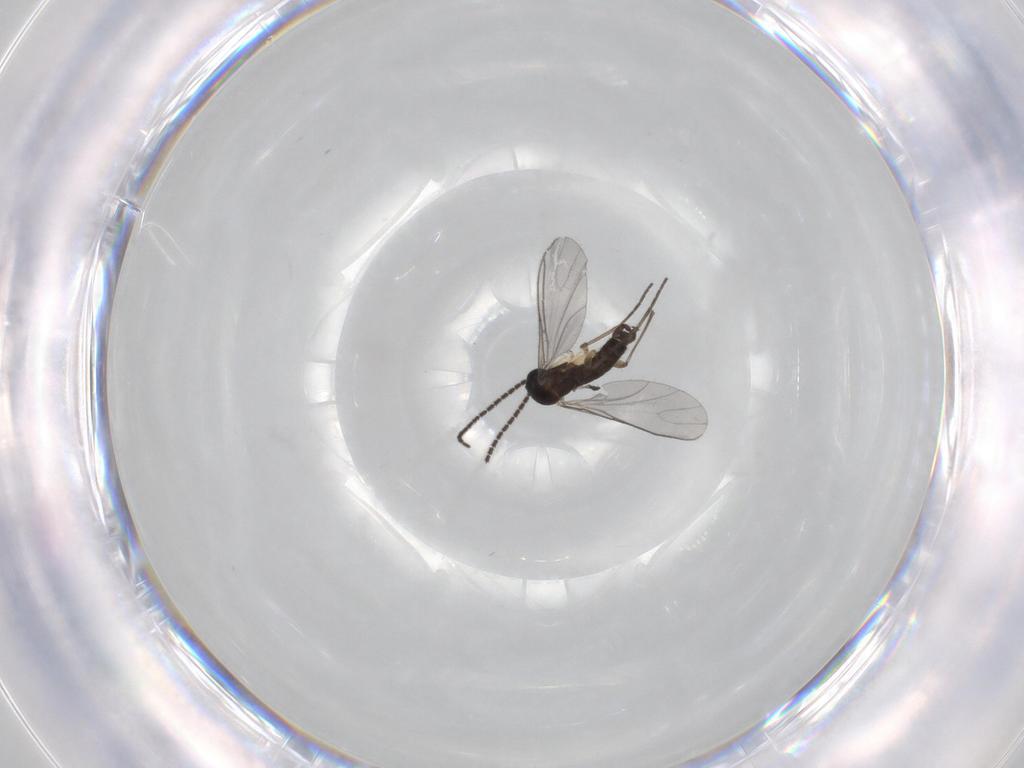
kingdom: Animalia
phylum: Arthropoda
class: Insecta
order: Diptera
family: Sciaridae
